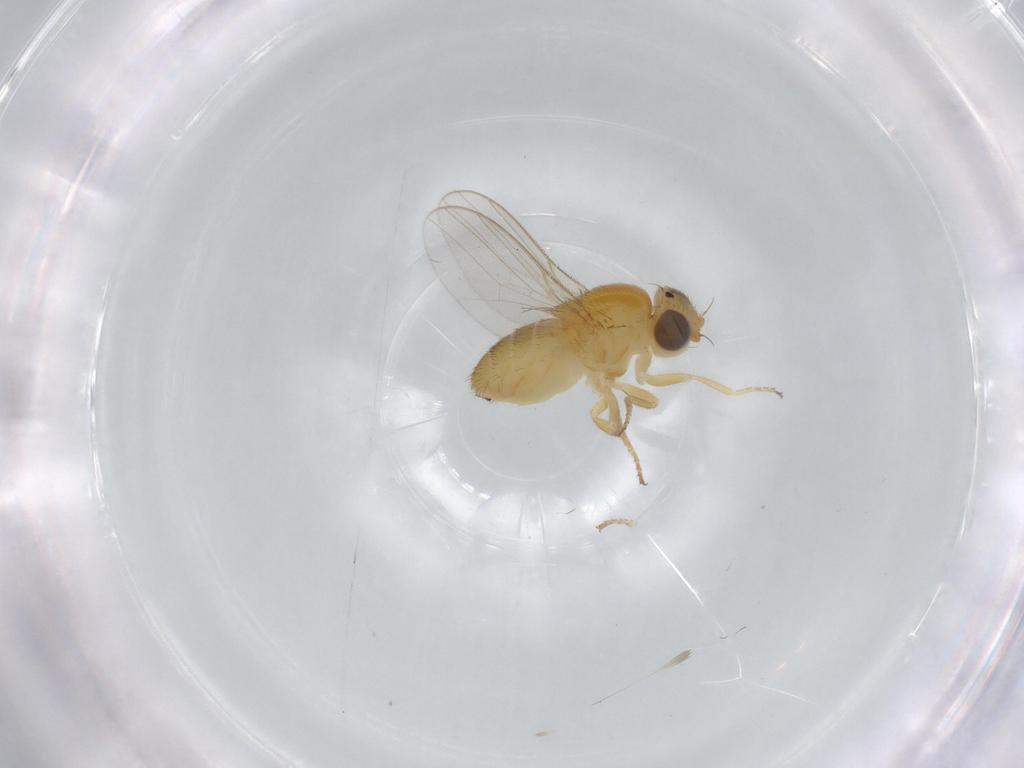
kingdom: Animalia
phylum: Arthropoda
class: Insecta
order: Diptera
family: Chloropidae
